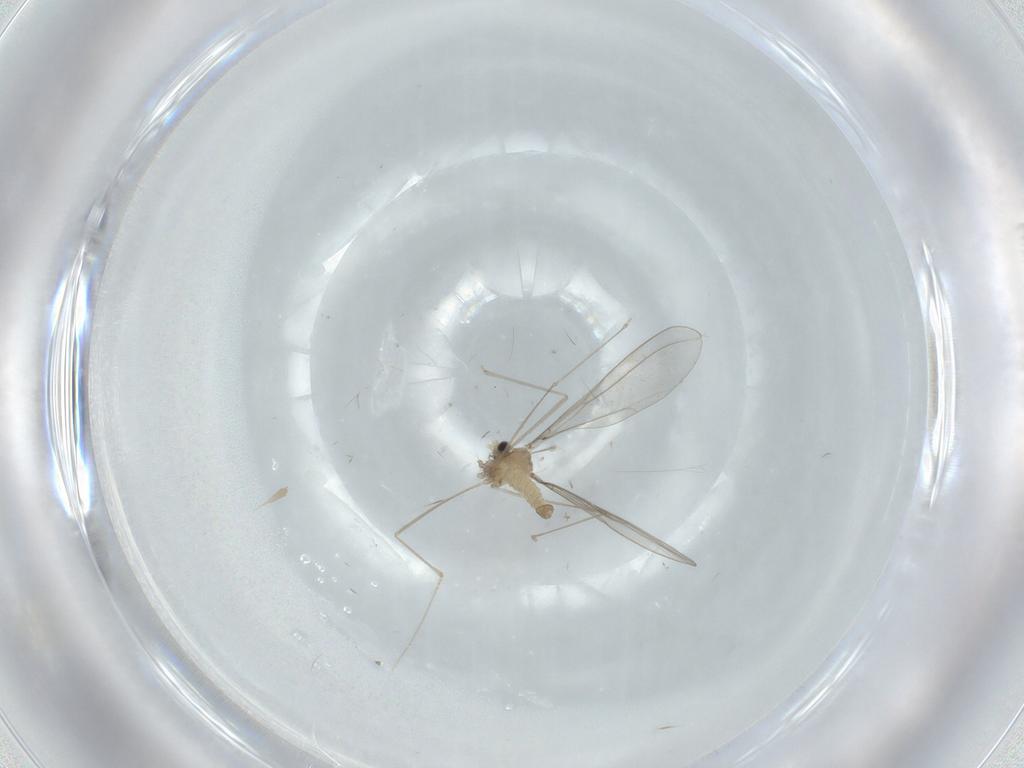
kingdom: Animalia
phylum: Arthropoda
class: Insecta
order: Diptera
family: Cecidomyiidae
